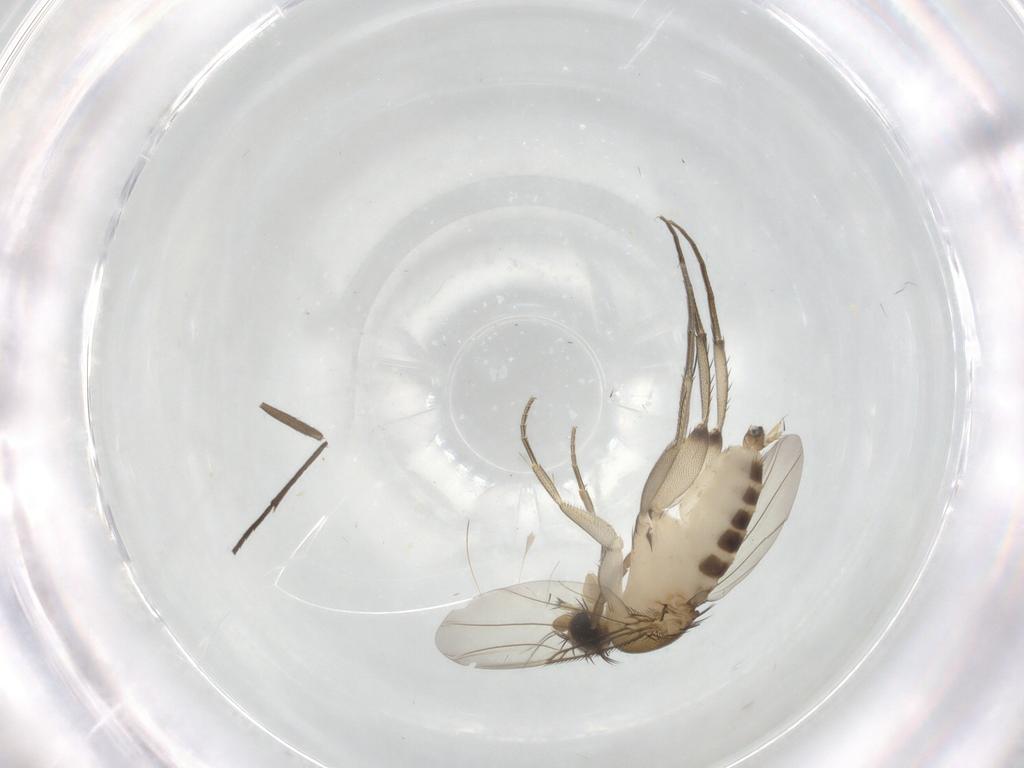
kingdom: Animalia
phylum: Arthropoda
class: Insecta
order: Diptera
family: Phoridae
